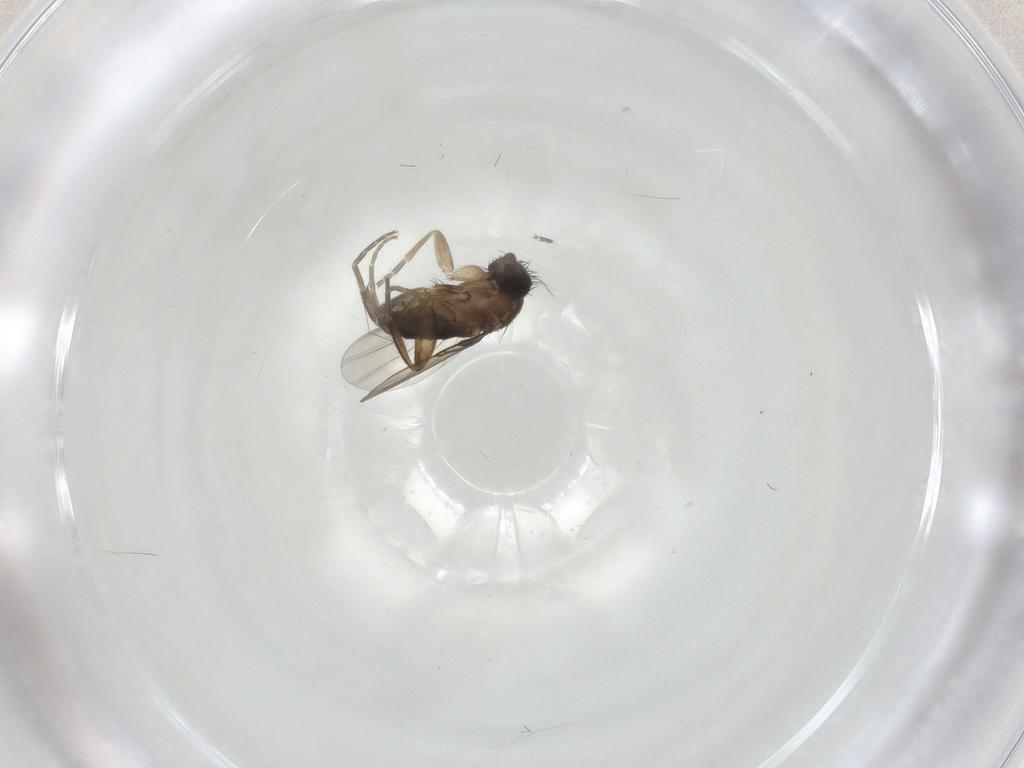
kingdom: Animalia
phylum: Arthropoda
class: Insecta
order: Diptera
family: Phoridae
